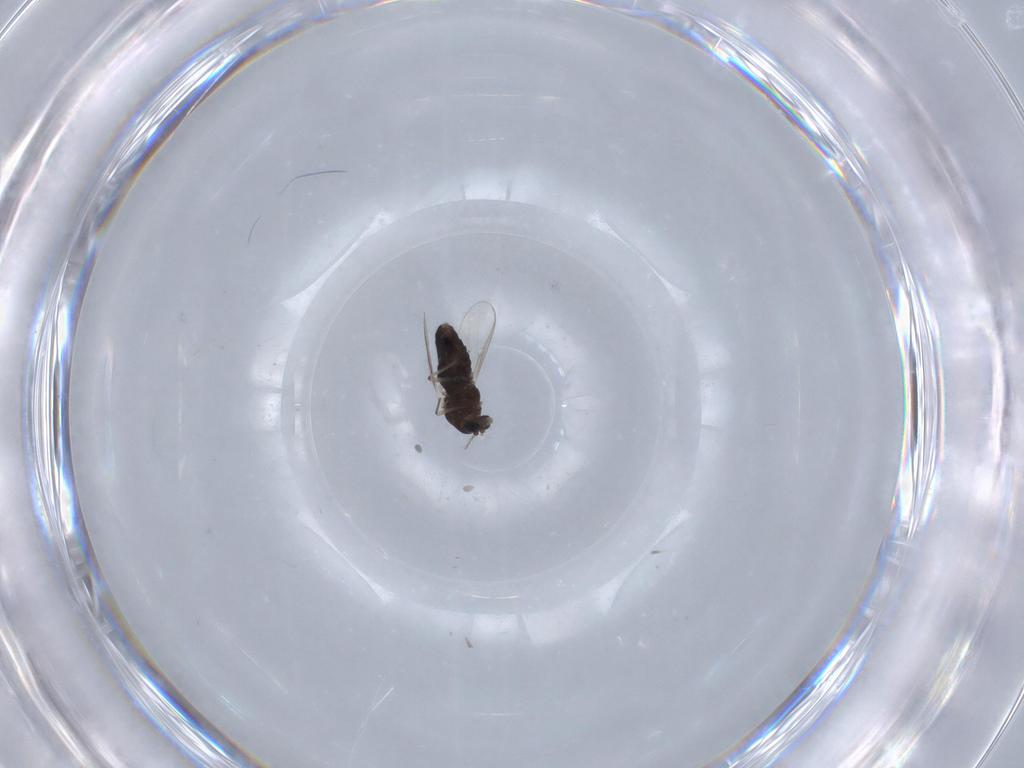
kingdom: Animalia
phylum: Arthropoda
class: Insecta
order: Diptera
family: Chironomidae
